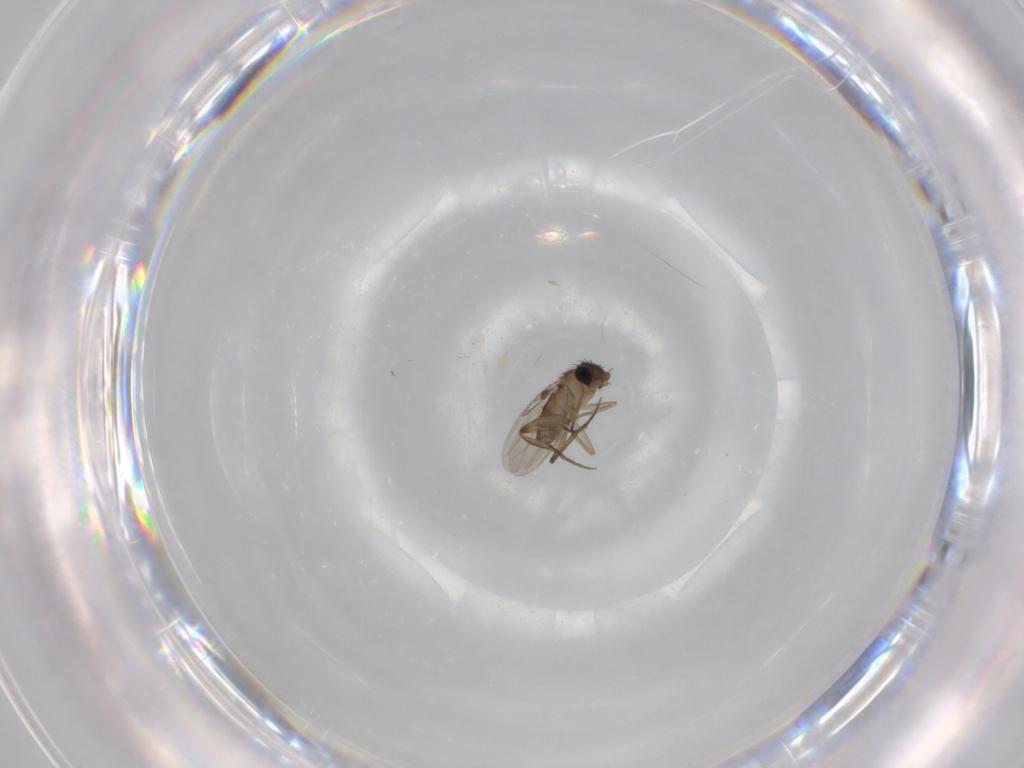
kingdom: Animalia
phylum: Arthropoda
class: Insecta
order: Diptera
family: Phoridae
